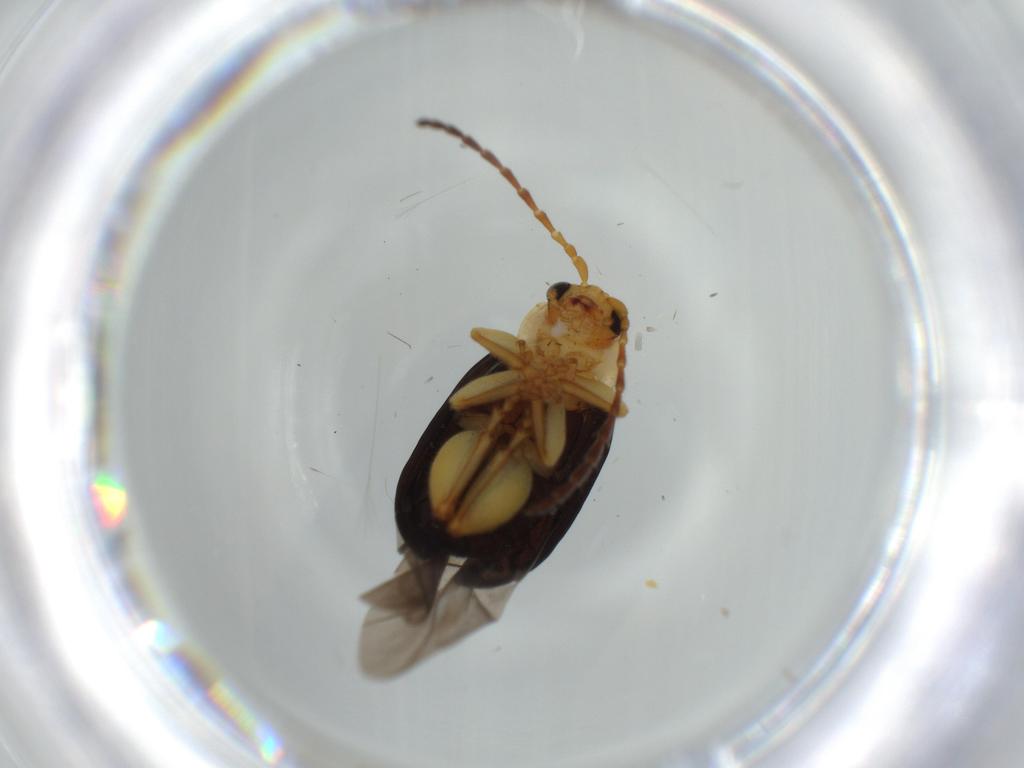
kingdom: Animalia
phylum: Arthropoda
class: Insecta
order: Coleoptera
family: Chrysomelidae
